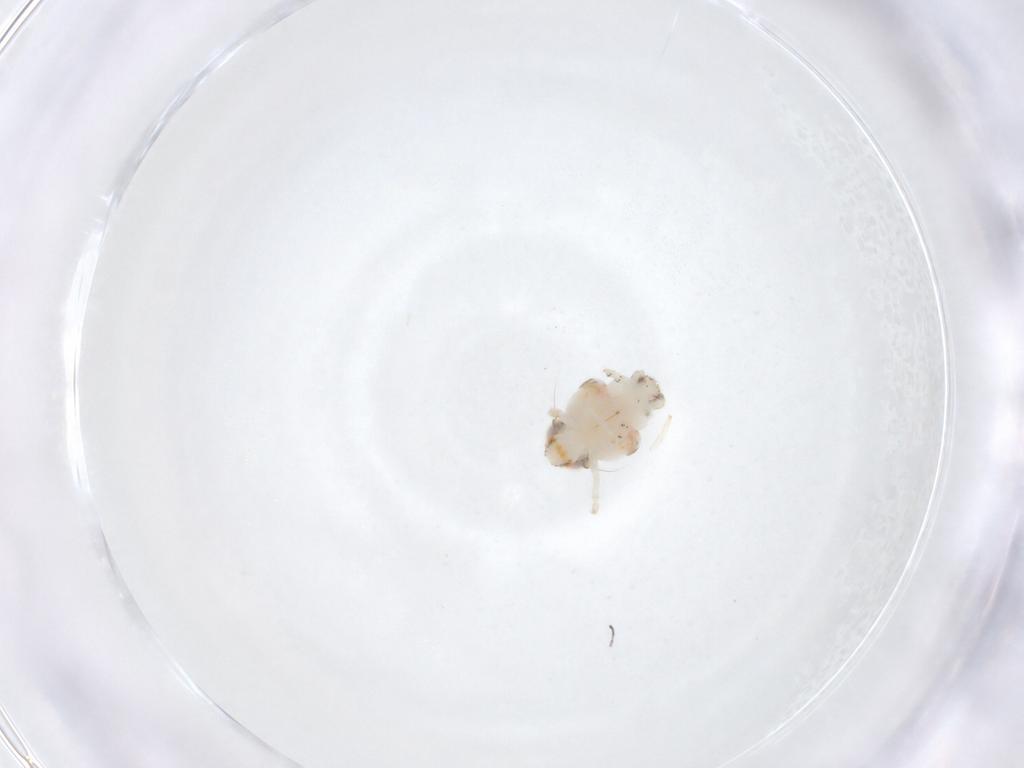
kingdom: Animalia
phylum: Arthropoda
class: Insecta
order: Hemiptera
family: Nogodinidae
